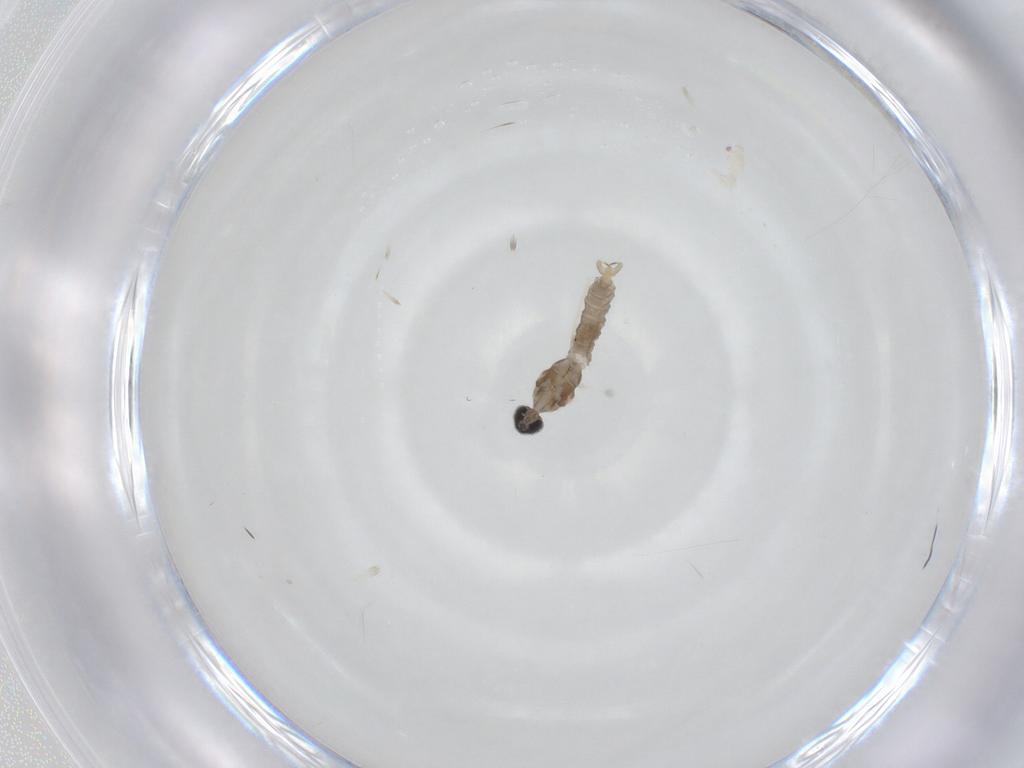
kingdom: Animalia
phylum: Arthropoda
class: Insecta
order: Diptera
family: Cecidomyiidae
